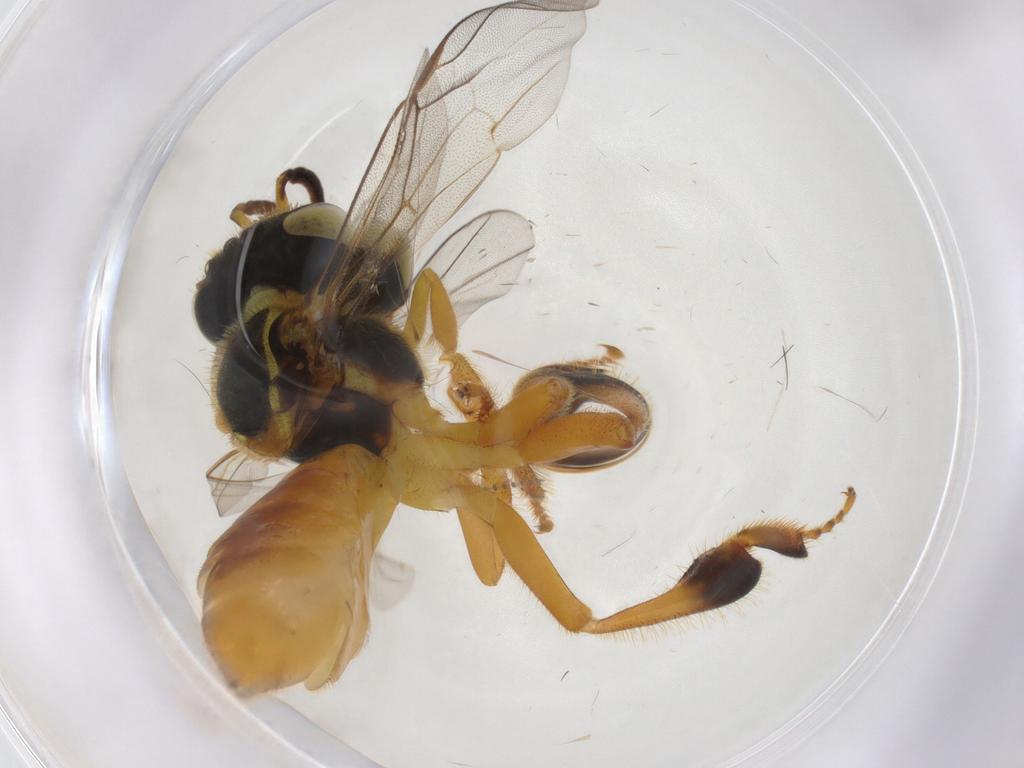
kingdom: Animalia
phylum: Arthropoda
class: Insecta
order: Hymenoptera
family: Apidae
